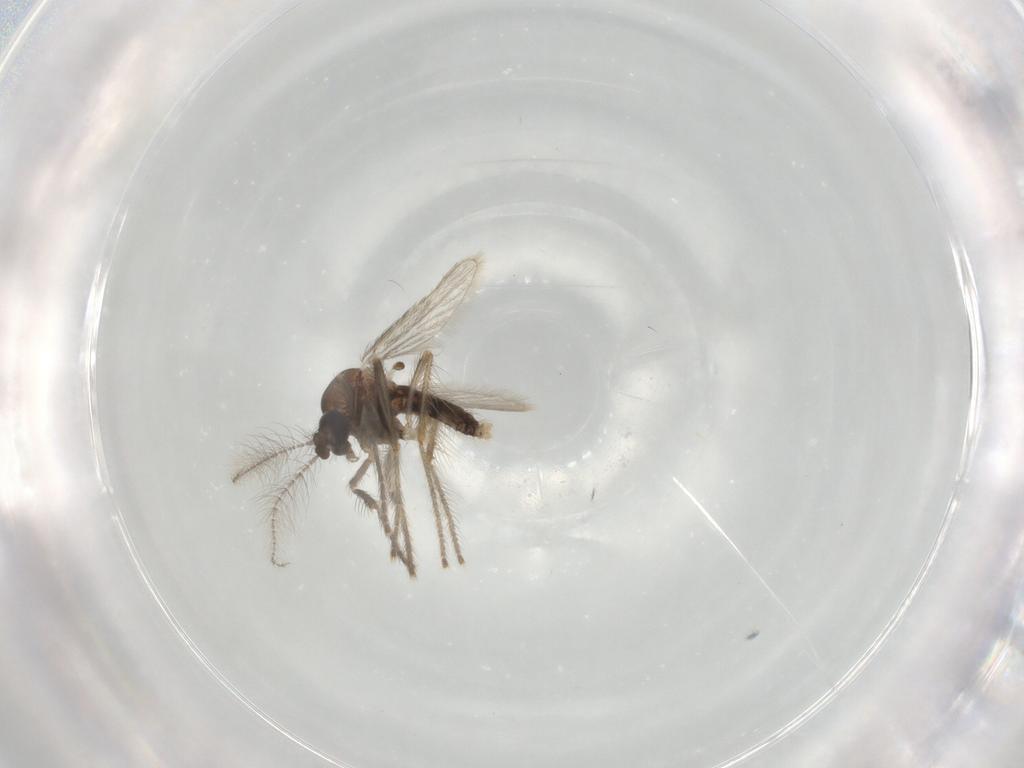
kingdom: Animalia
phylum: Arthropoda
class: Insecta
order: Diptera
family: Corethrellidae
